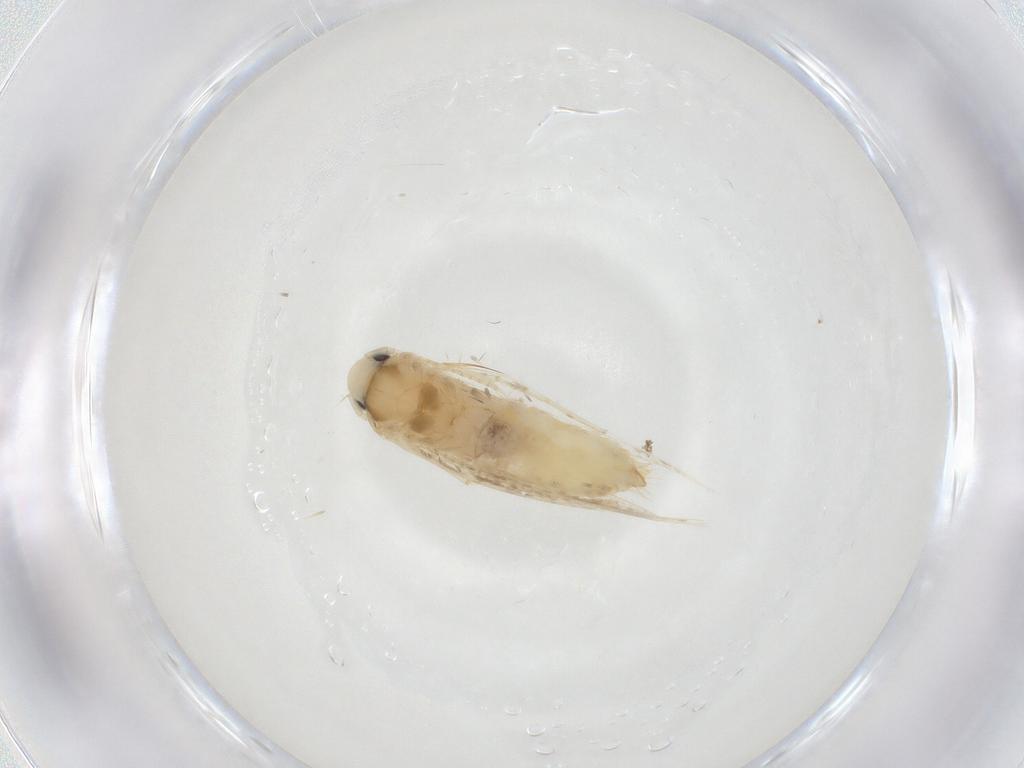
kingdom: Animalia
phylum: Arthropoda
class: Insecta
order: Lepidoptera
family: Gracillariidae
